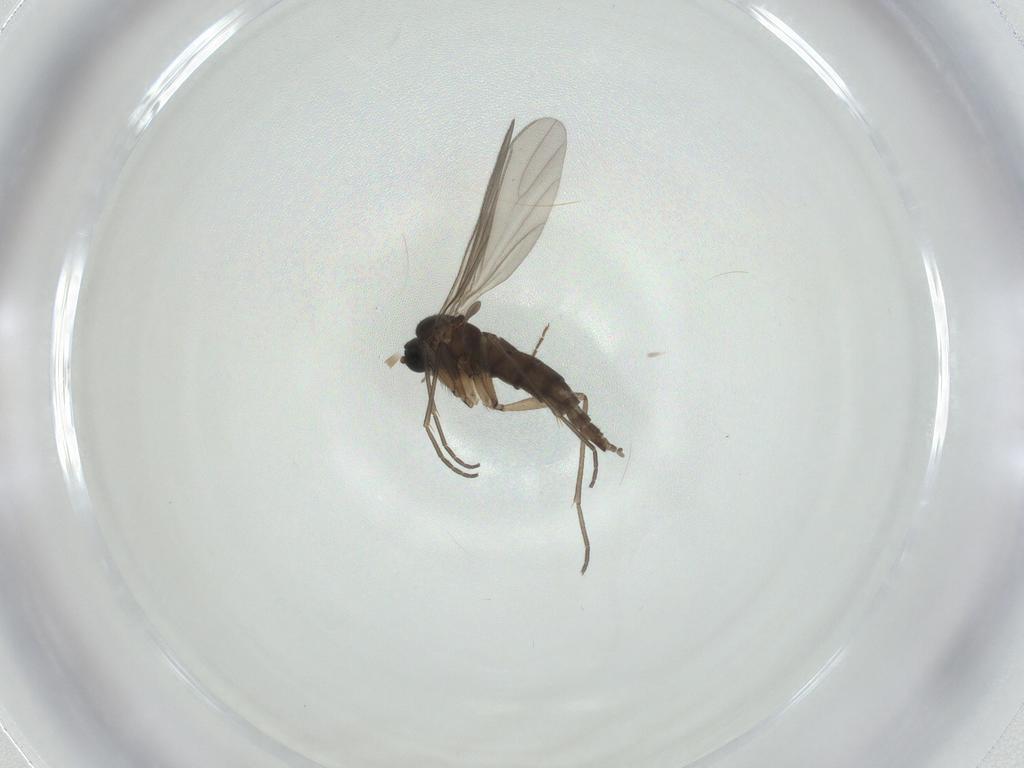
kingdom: Animalia
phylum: Arthropoda
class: Insecta
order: Diptera
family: Sciaridae
